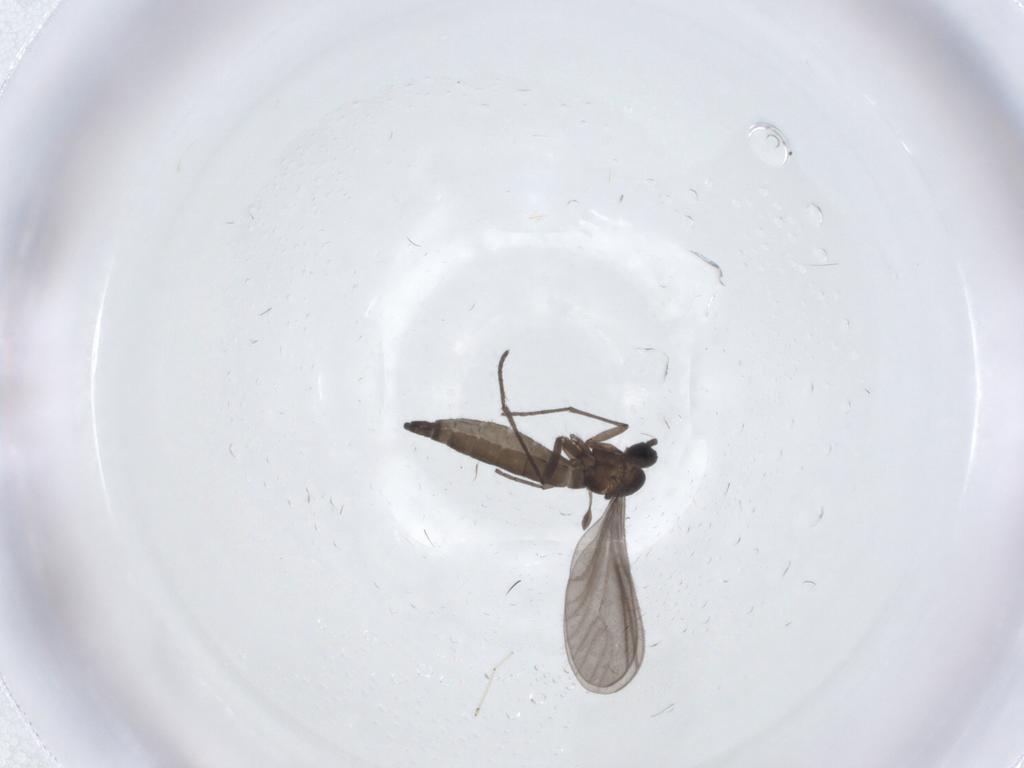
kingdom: Animalia
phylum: Arthropoda
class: Insecta
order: Diptera
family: Sciaridae
